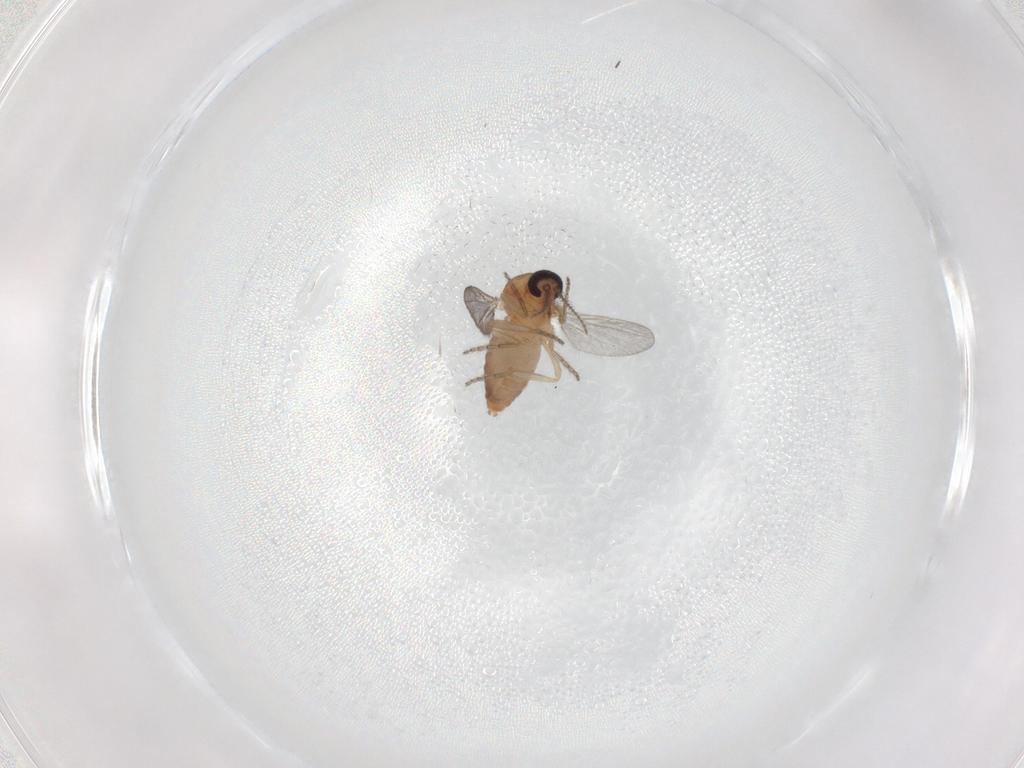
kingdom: Animalia
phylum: Arthropoda
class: Insecta
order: Diptera
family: Ceratopogonidae
